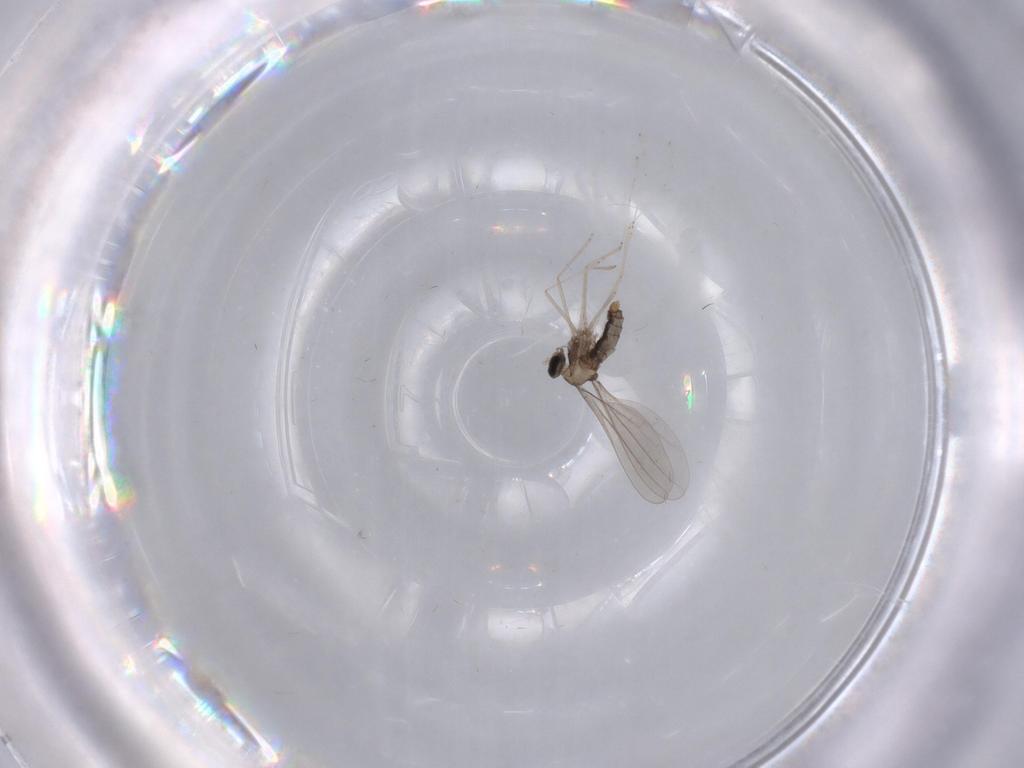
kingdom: Animalia
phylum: Arthropoda
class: Insecta
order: Diptera
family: Cecidomyiidae
